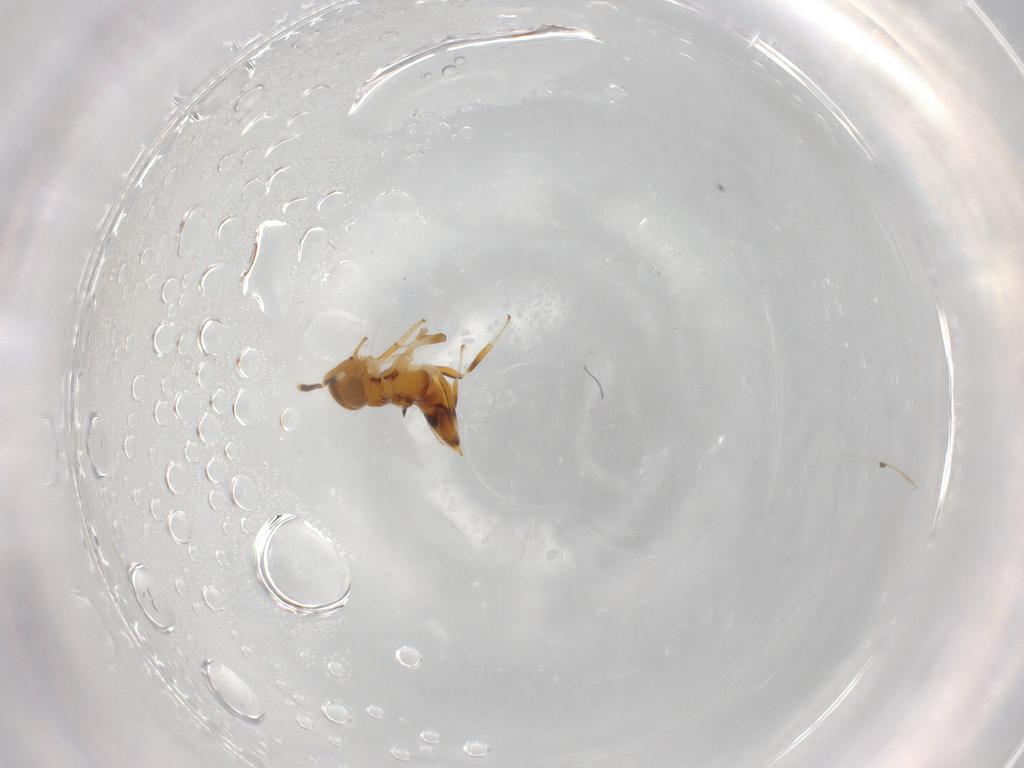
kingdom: Animalia
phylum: Arthropoda
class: Insecta
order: Hymenoptera
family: Encyrtidae
